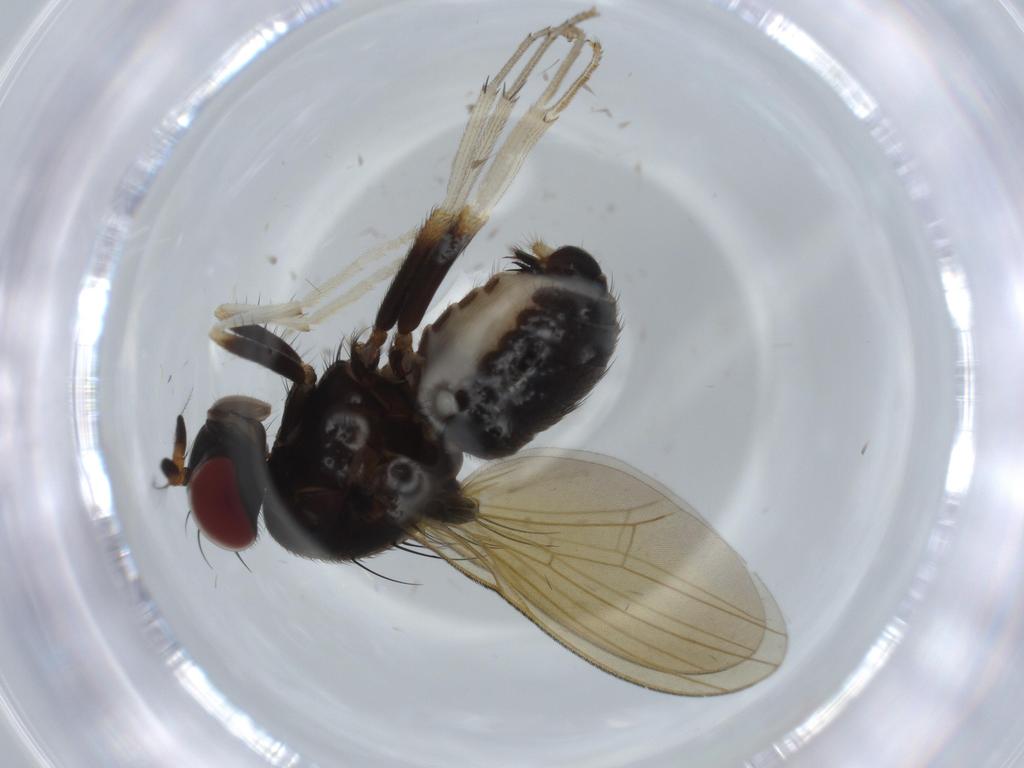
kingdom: Animalia
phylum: Arthropoda
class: Insecta
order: Diptera
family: Lauxaniidae
